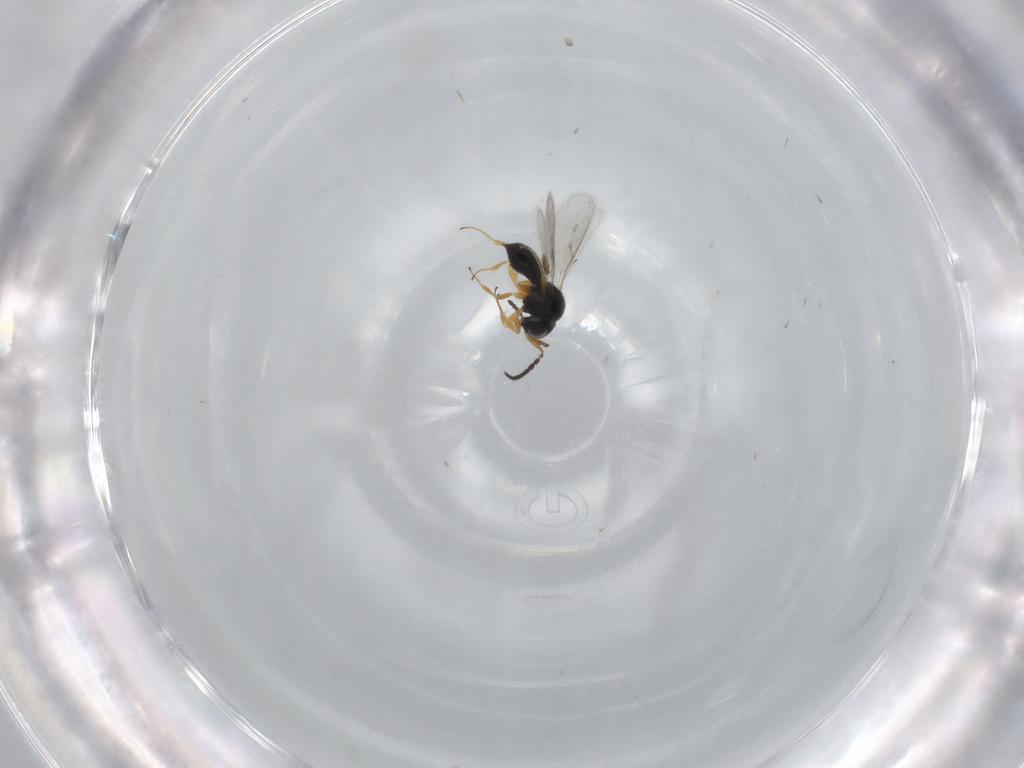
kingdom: Animalia
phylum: Arthropoda
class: Insecta
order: Hymenoptera
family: Scelionidae
